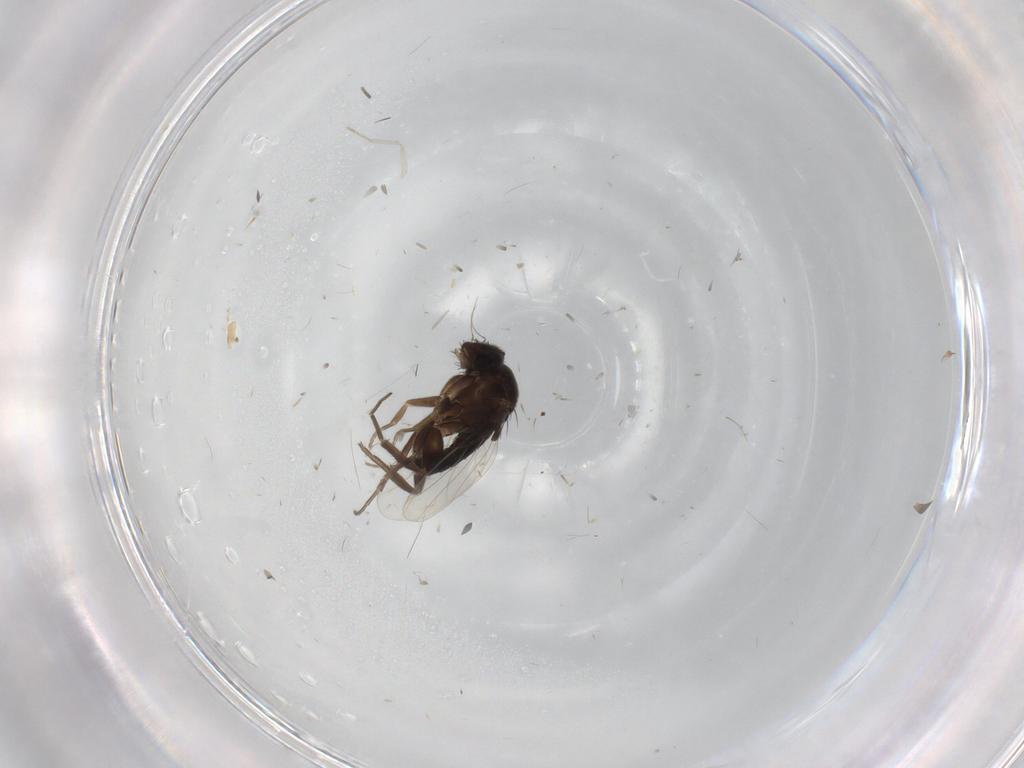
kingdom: Animalia
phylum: Arthropoda
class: Insecta
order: Diptera
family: Phoridae
